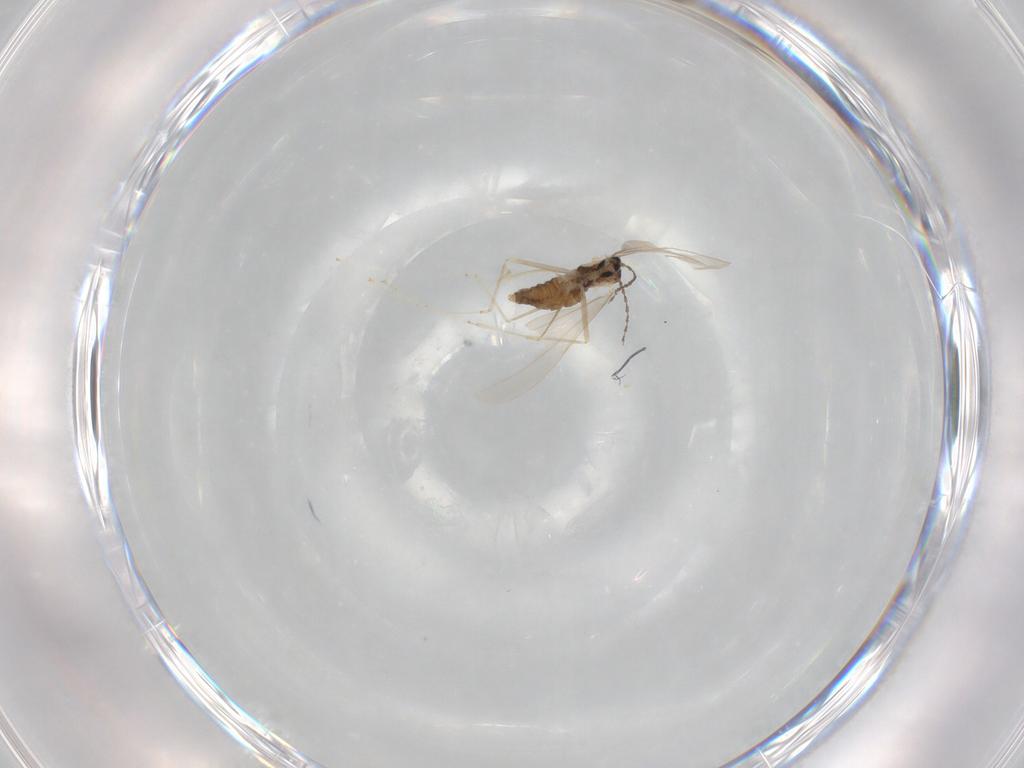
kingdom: Animalia
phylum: Arthropoda
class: Insecta
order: Diptera
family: Cecidomyiidae
